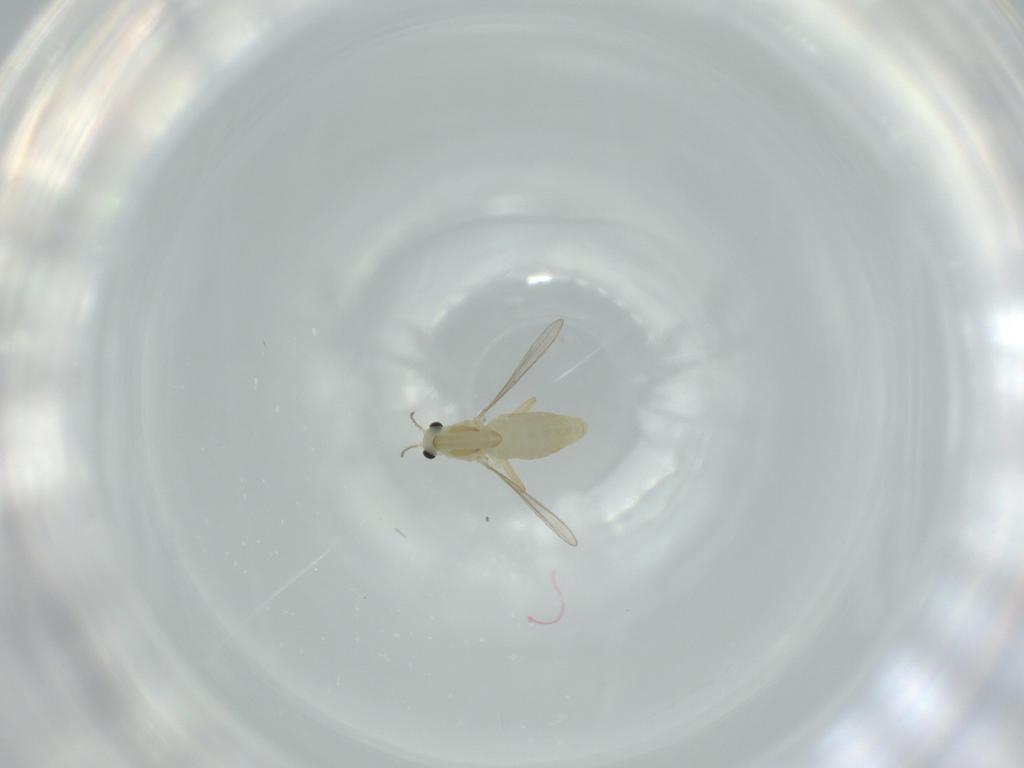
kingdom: Animalia
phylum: Arthropoda
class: Insecta
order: Diptera
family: Chironomidae
